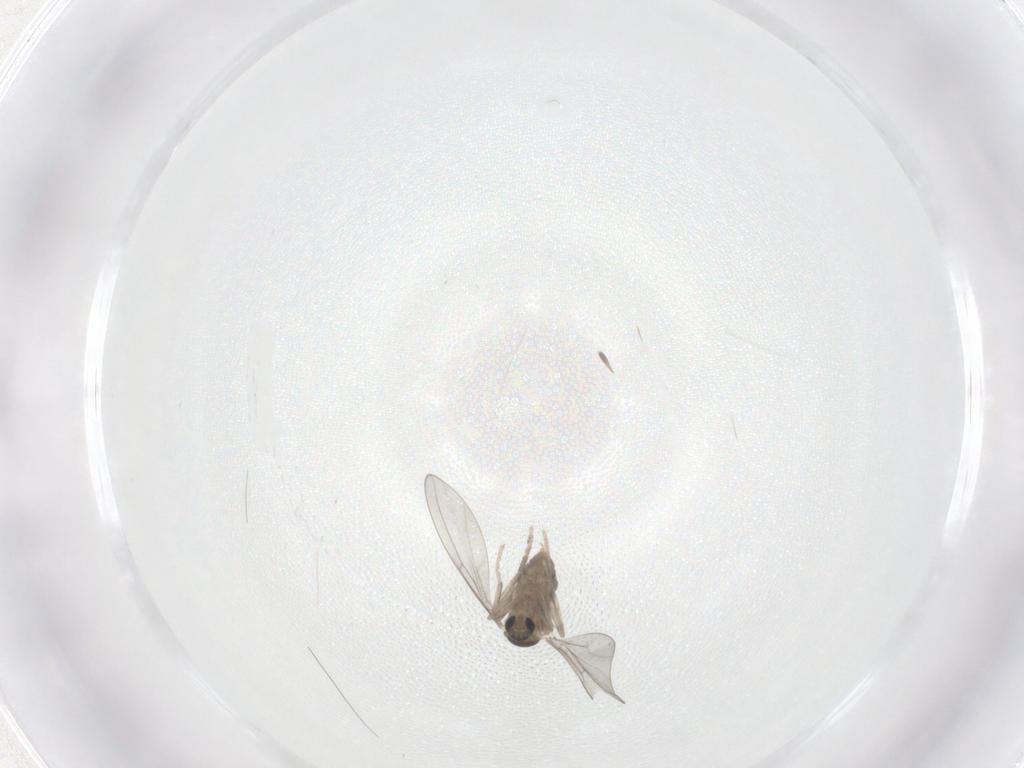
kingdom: Animalia
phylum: Arthropoda
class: Insecta
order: Diptera
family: Cecidomyiidae
